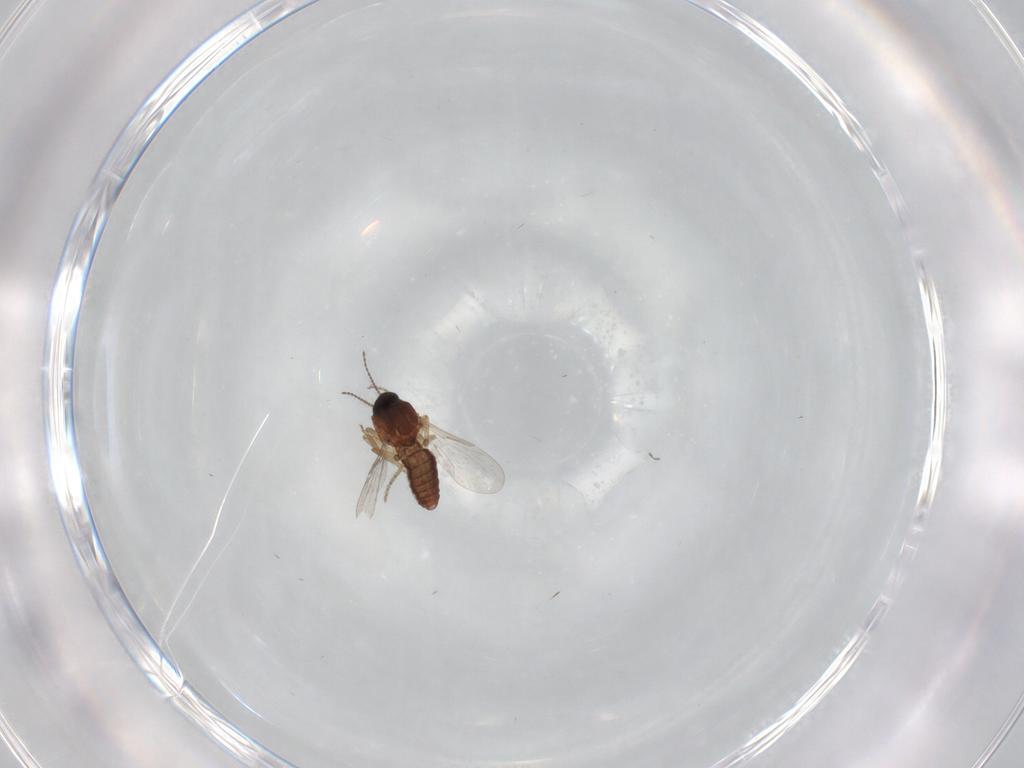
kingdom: Animalia
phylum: Arthropoda
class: Insecta
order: Diptera
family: Ceratopogonidae
